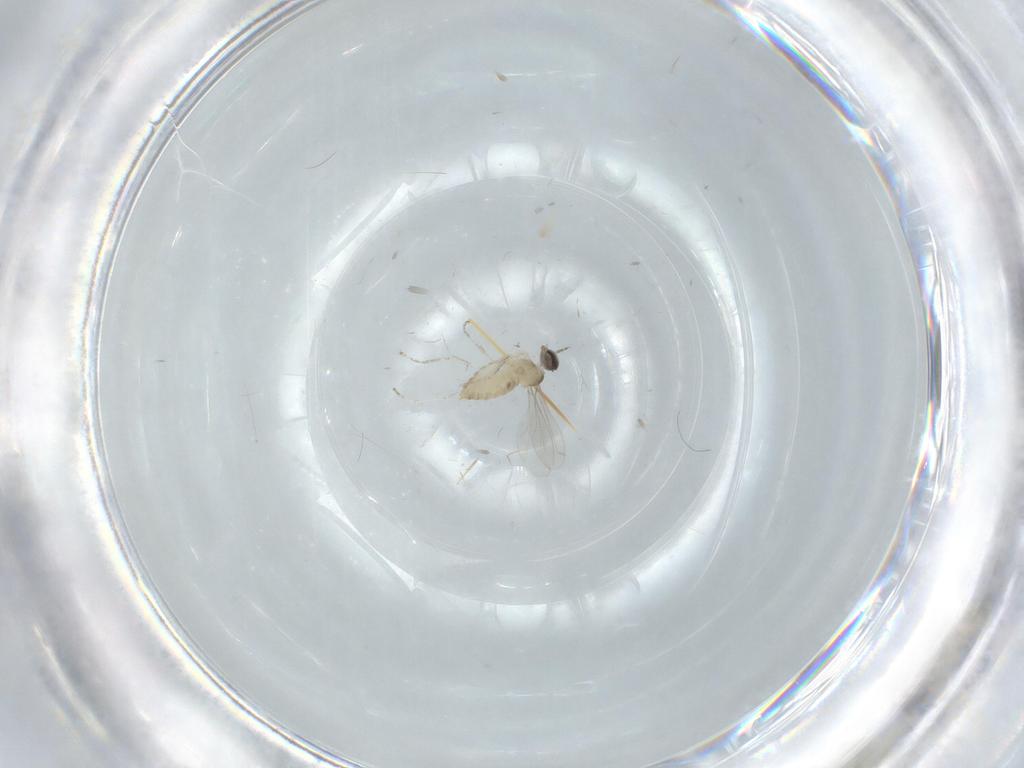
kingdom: Animalia
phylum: Arthropoda
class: Insecta
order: Diptera
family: Cecidomyiidae
